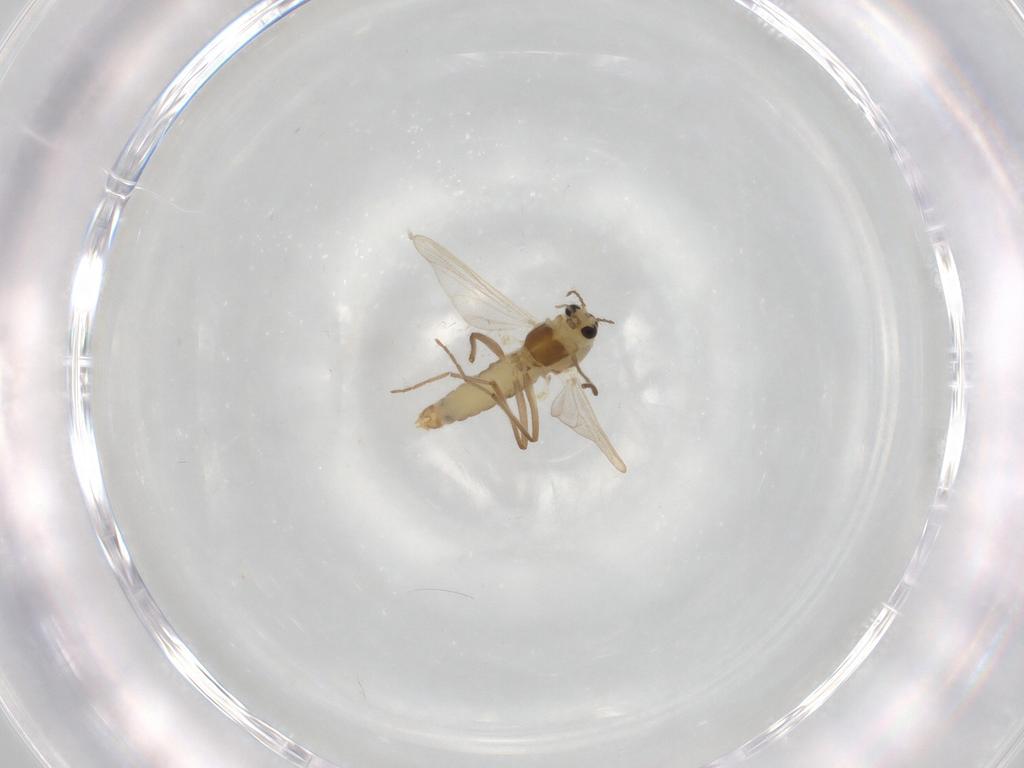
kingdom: Animalia
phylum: Arthropoda
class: Insecta
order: Diptera
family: Chironomidae
